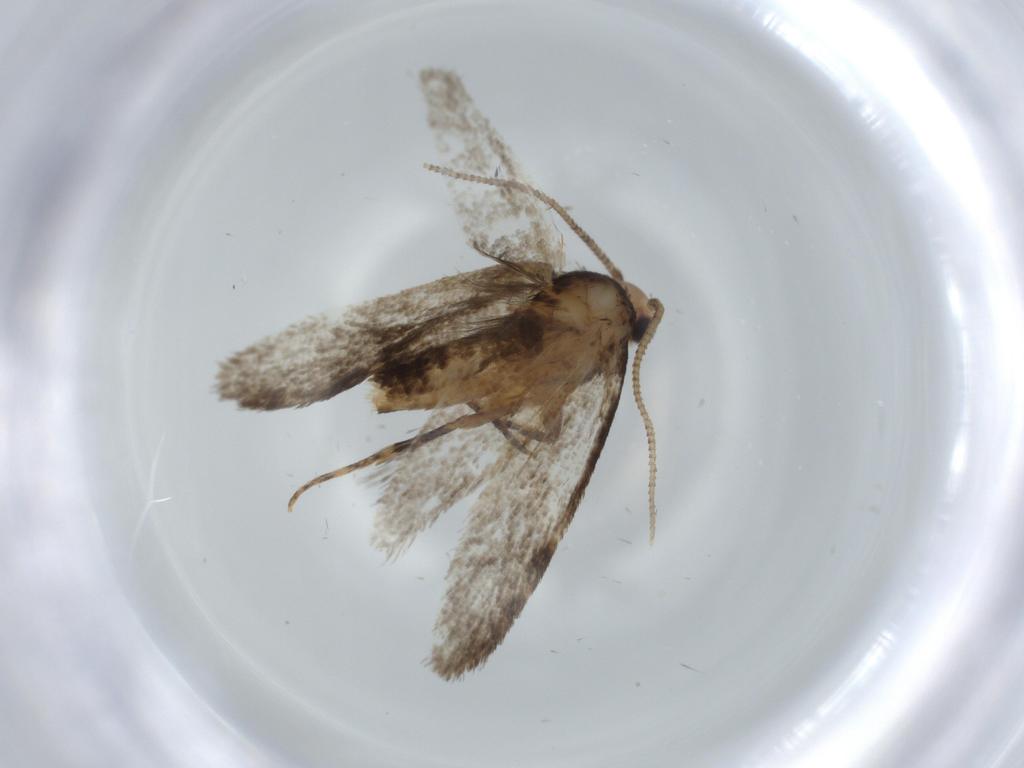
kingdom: Animalia
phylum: Arthropoda
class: Insecta
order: Lepidoptera
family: Tineidae
